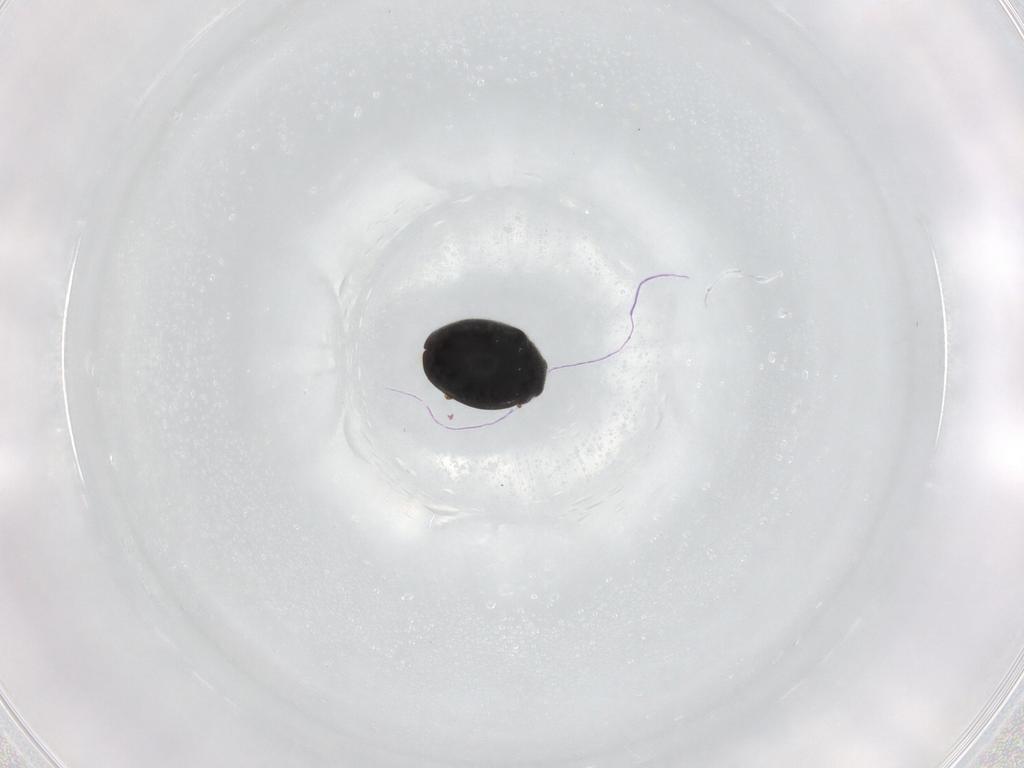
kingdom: Animalia
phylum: Arthropoda
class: Insecta
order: Coleoptera
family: Coccinellidae
